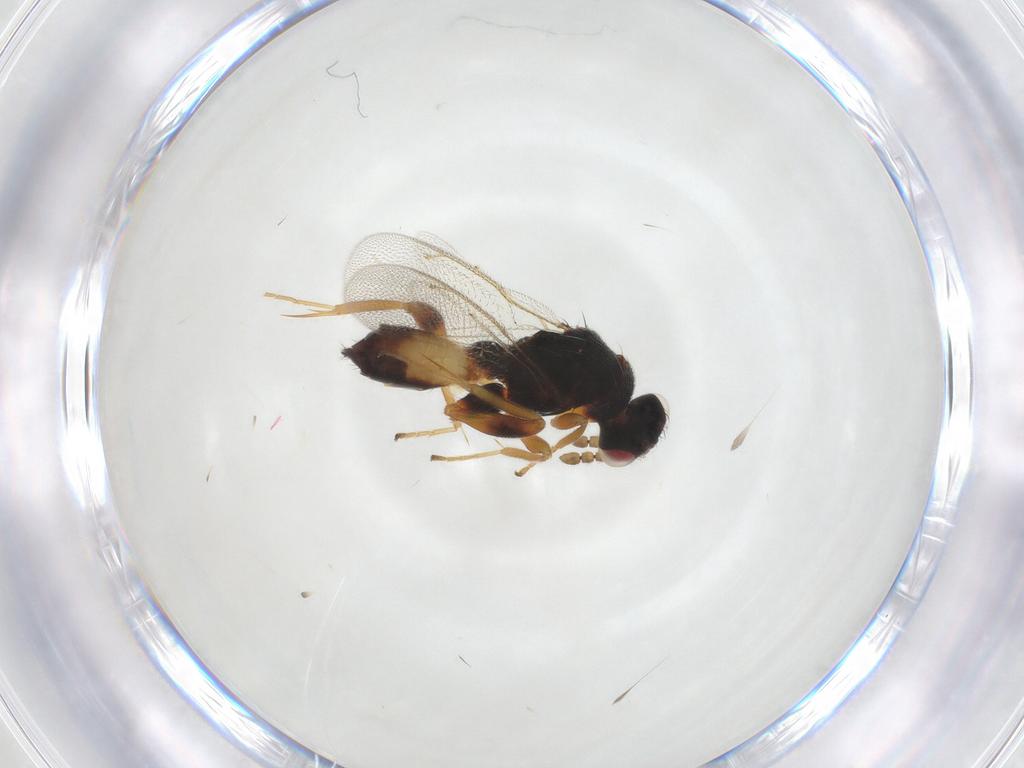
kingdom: Animalia
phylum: Arthropoda
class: Insecta
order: Hymenoptera
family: Eulophidae
